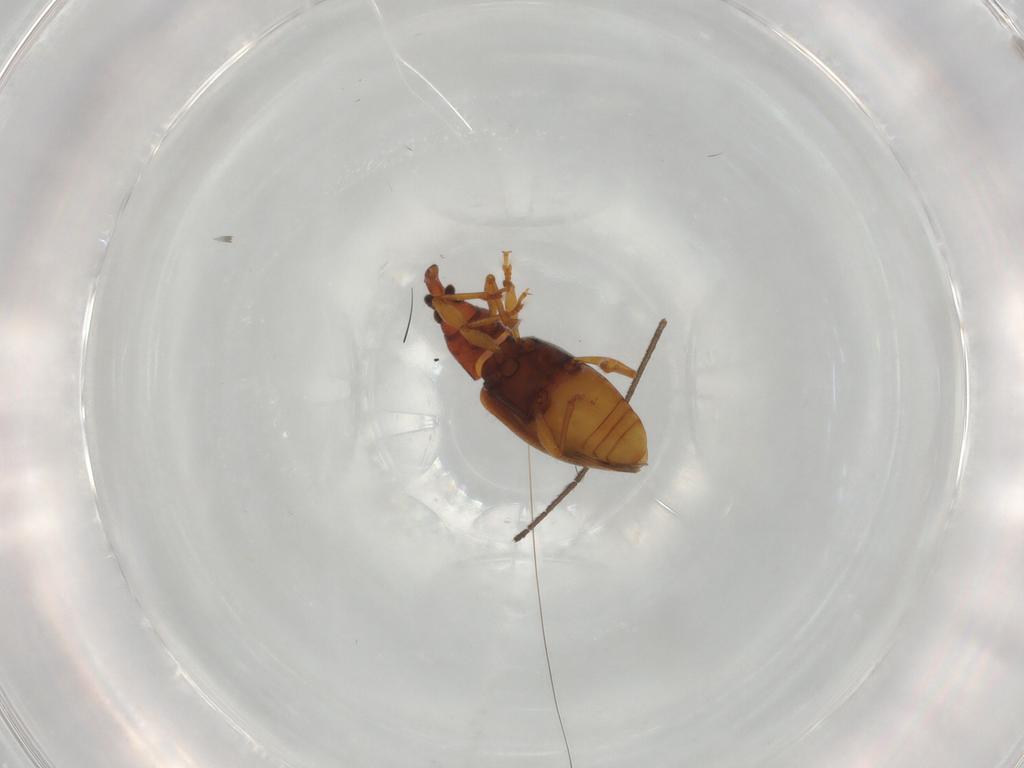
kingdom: Animalia
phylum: Arthropoda
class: Insecta
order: Coleoptera
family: Curculionidae
